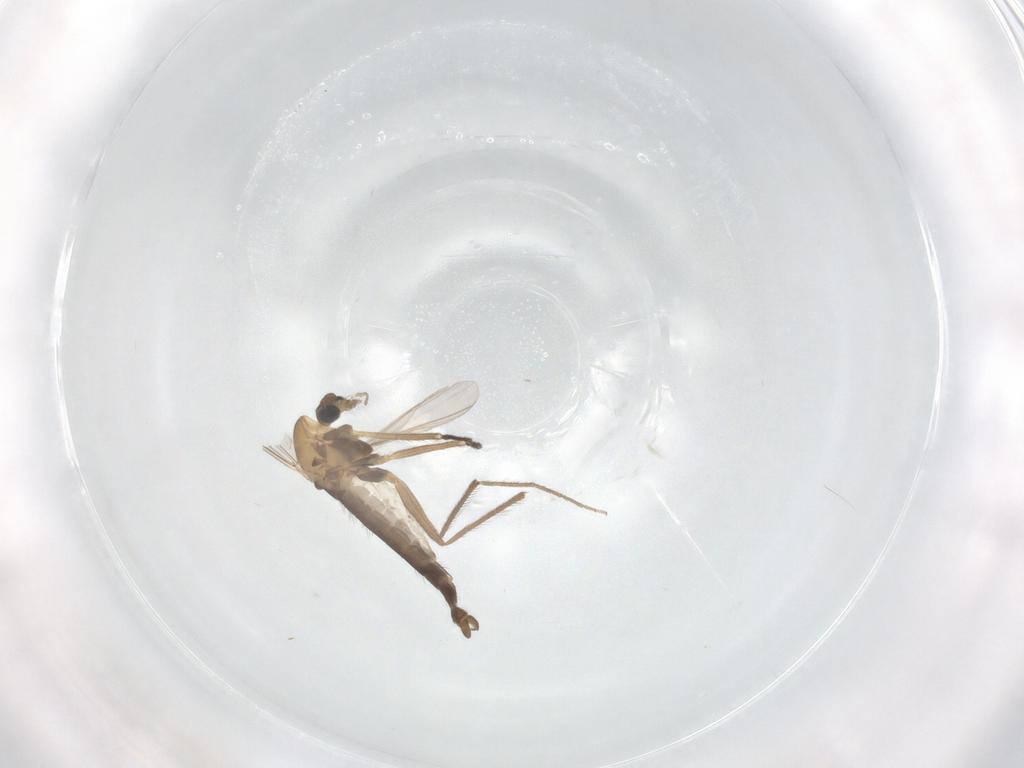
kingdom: Animalia
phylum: Arthropoda
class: Insecta
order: Diptera
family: Chironomidae
